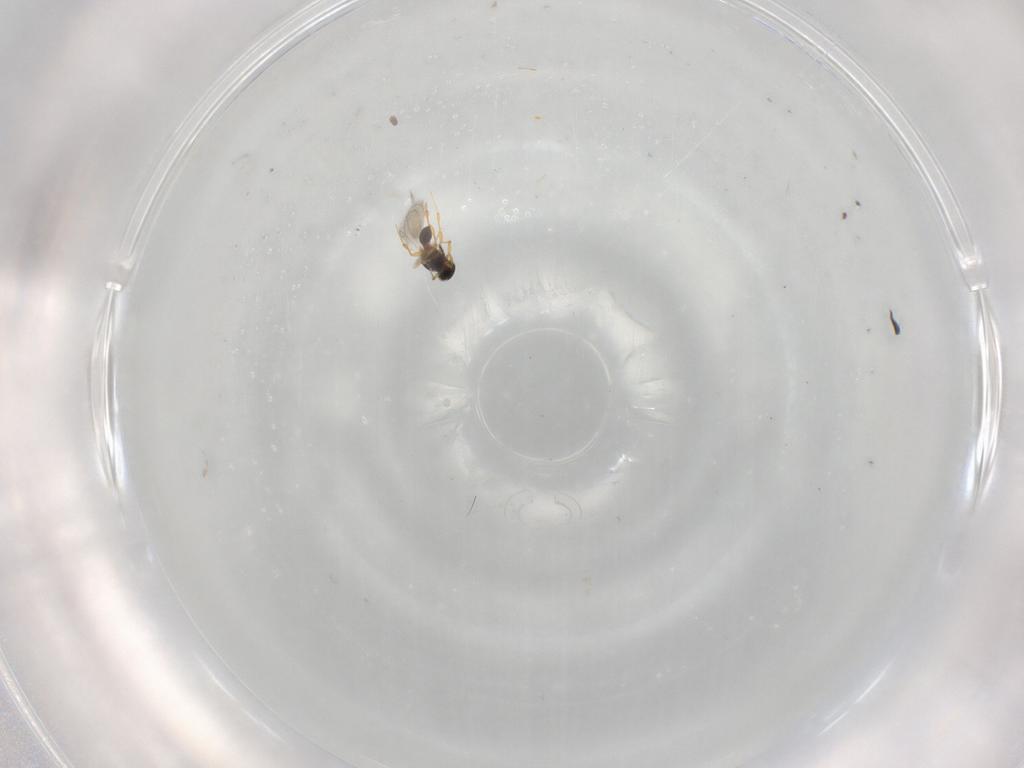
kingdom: Animalia
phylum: Arthropoda
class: Insecta
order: Hymenoptera
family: Platygastridae
